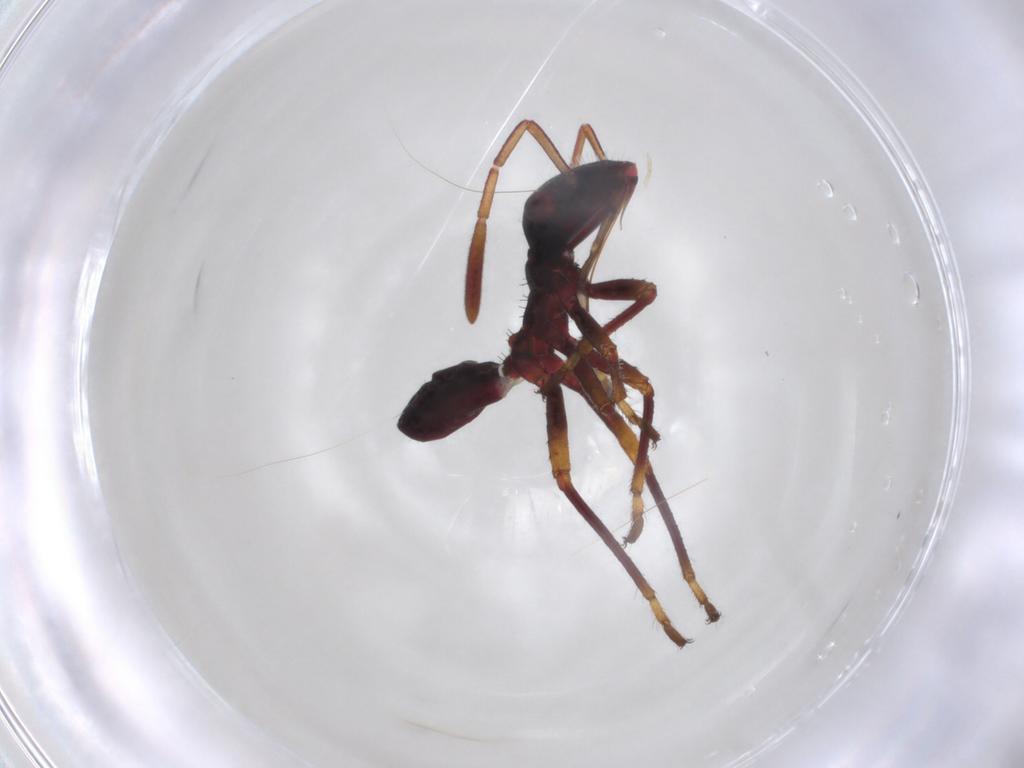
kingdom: Animalia
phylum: Arthropoda
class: Insecta
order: Hemiptera
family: Alydidae
